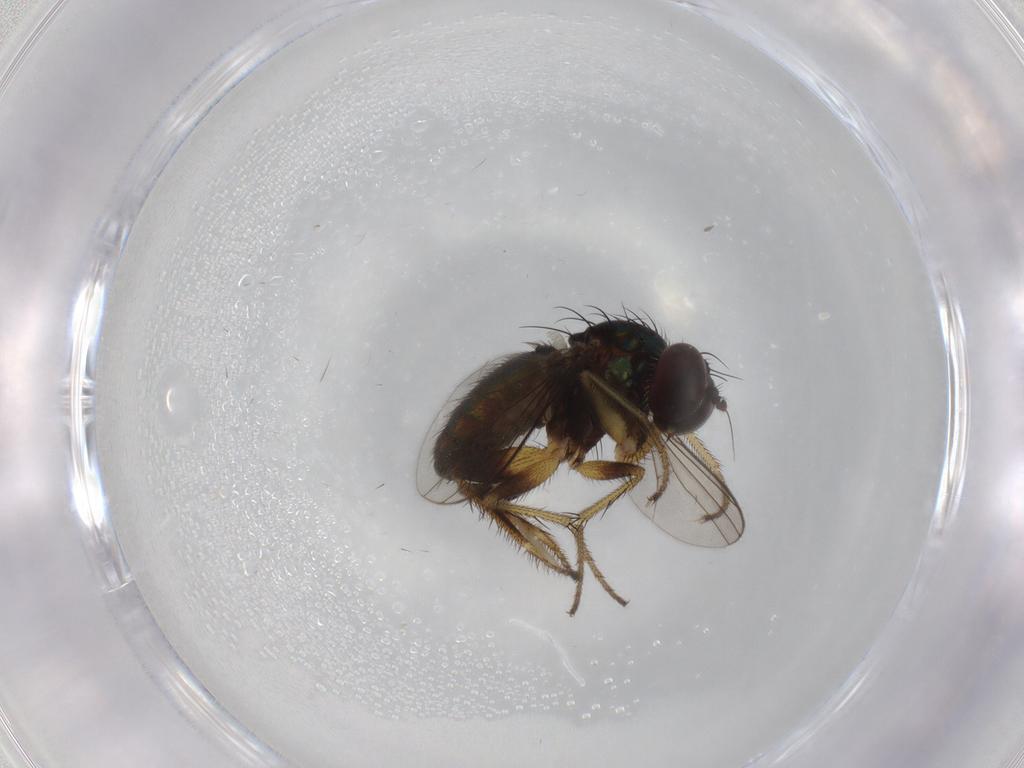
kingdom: Animalia
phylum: Arthropoda
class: Insecta
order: Diptera
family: Dolichopodidae
